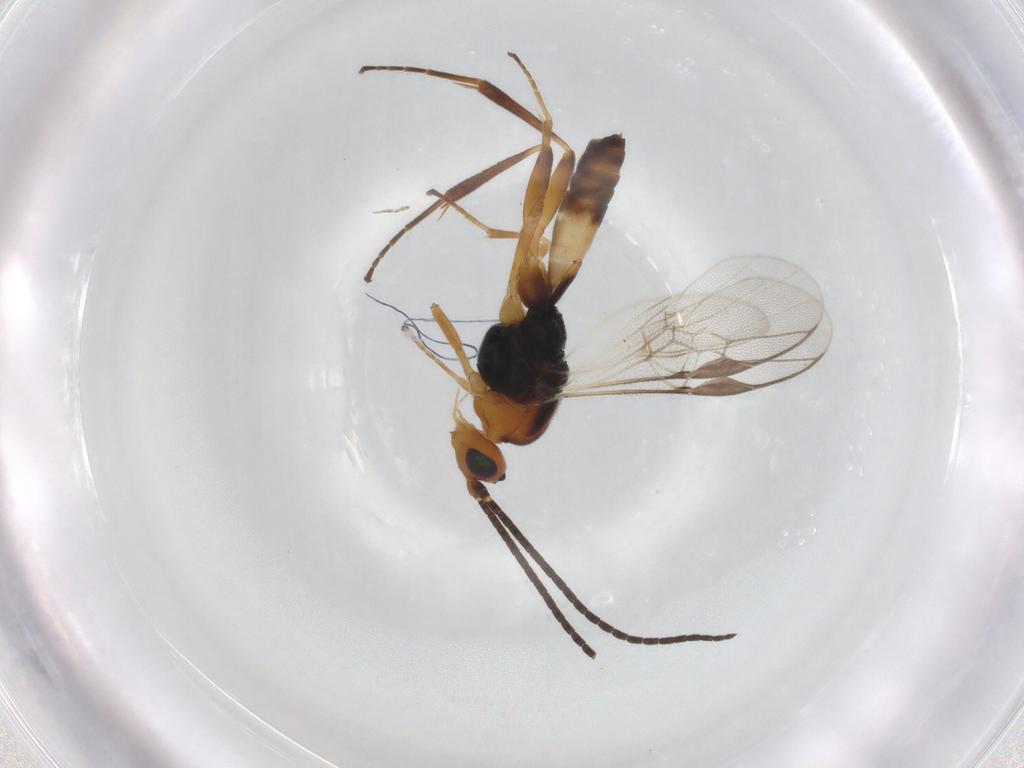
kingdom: Animalia
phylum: Arthropoda
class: Insecta
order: Hymenoptera
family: Braconidae
